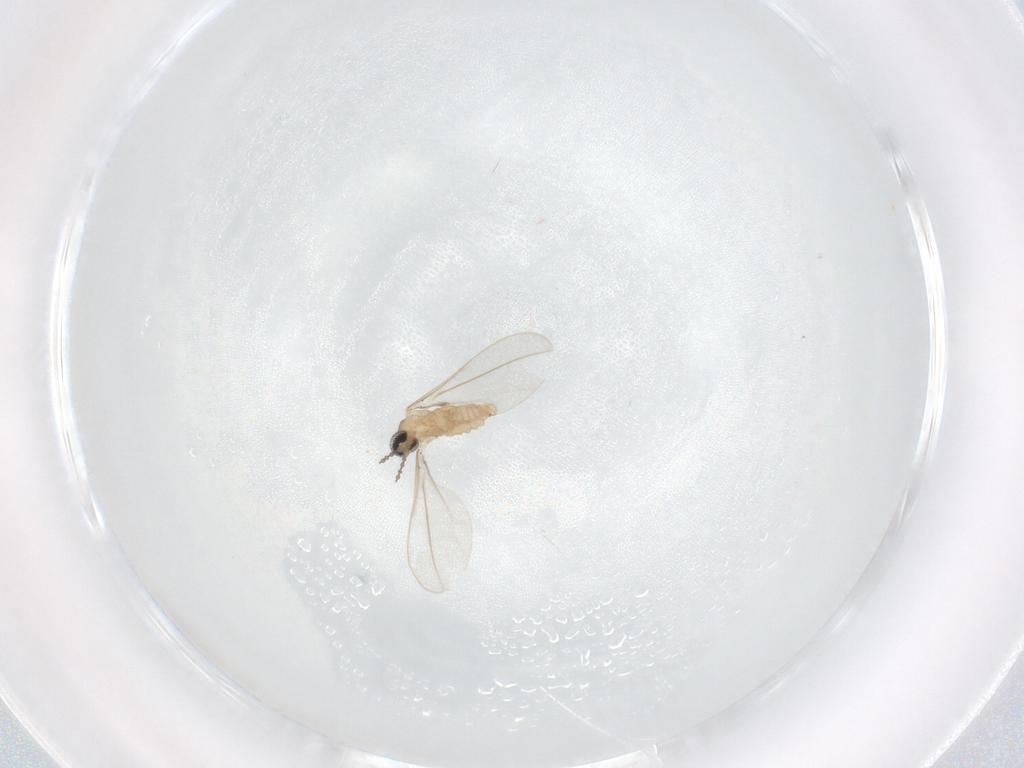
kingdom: Animalia
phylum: Arthropoda
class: Insecta
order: Diptera
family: Cecidomyiidae
